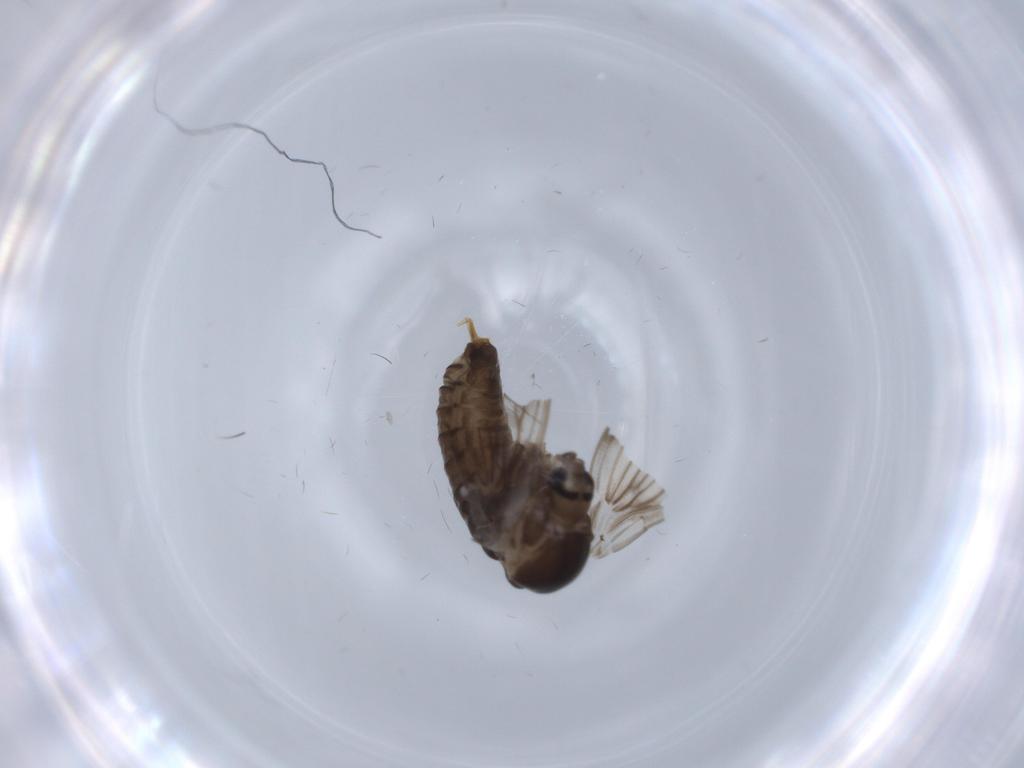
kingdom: Animalia
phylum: Arthropoda
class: Insecta
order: Diptera
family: Psychodidae
